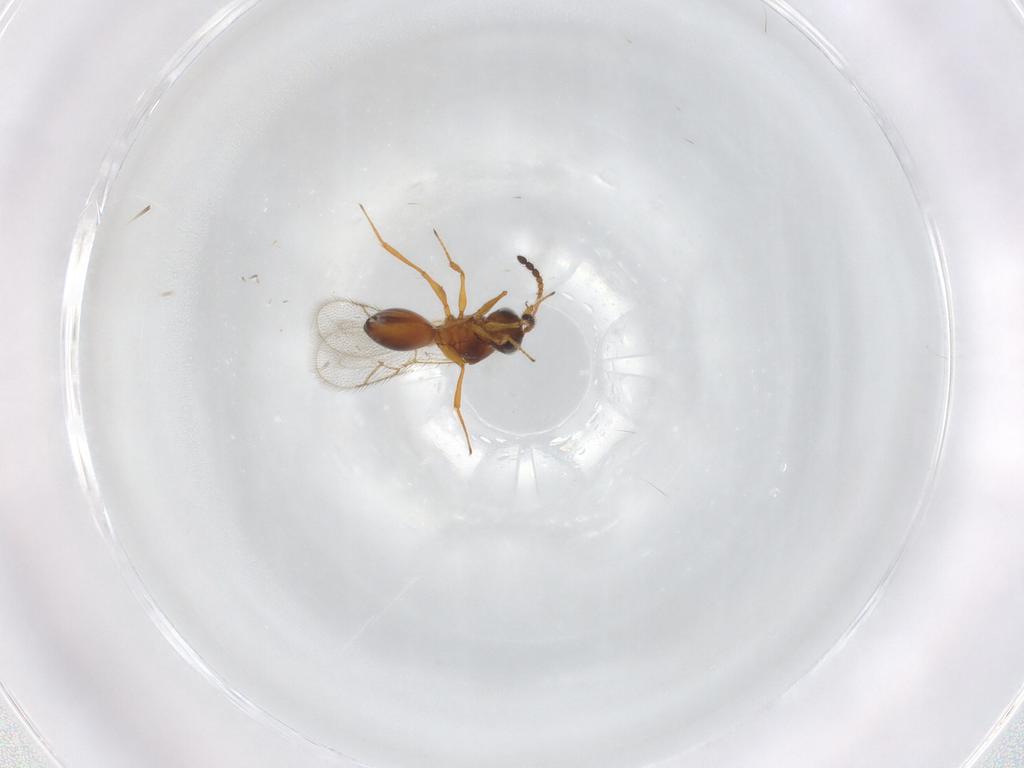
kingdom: Animalia
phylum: Arthropoda
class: Insecta
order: Hymenoptera
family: Figitidae
